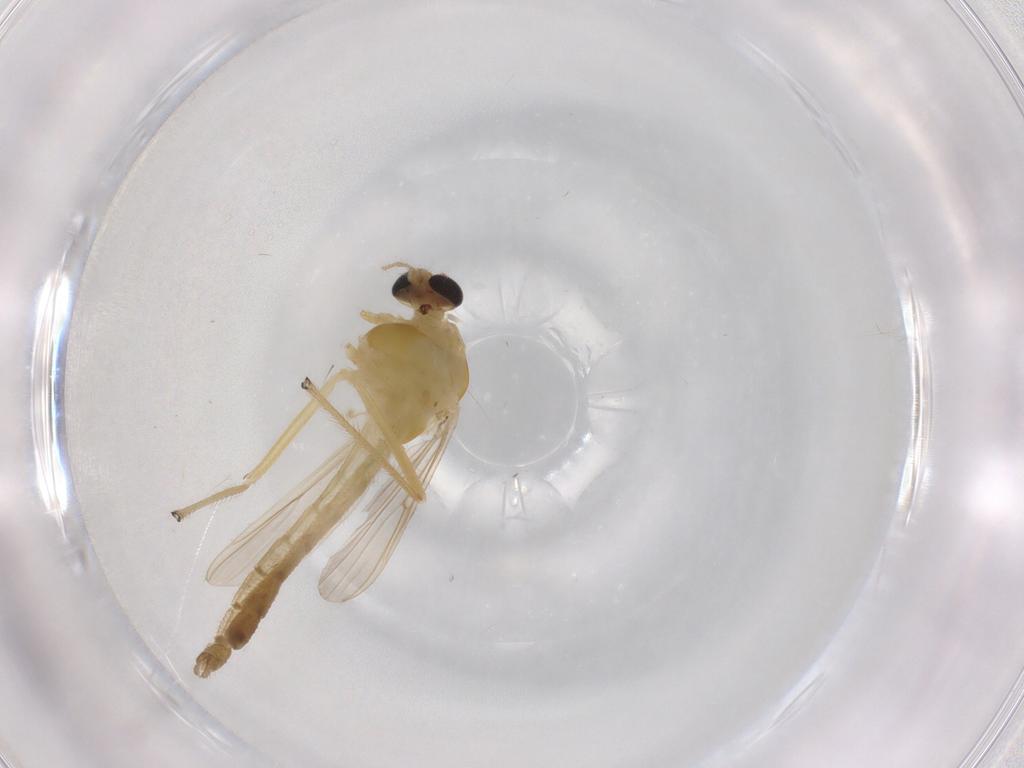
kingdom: Animalia
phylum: Arthropoda
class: Insecta
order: Diptera
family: Chironomidae
